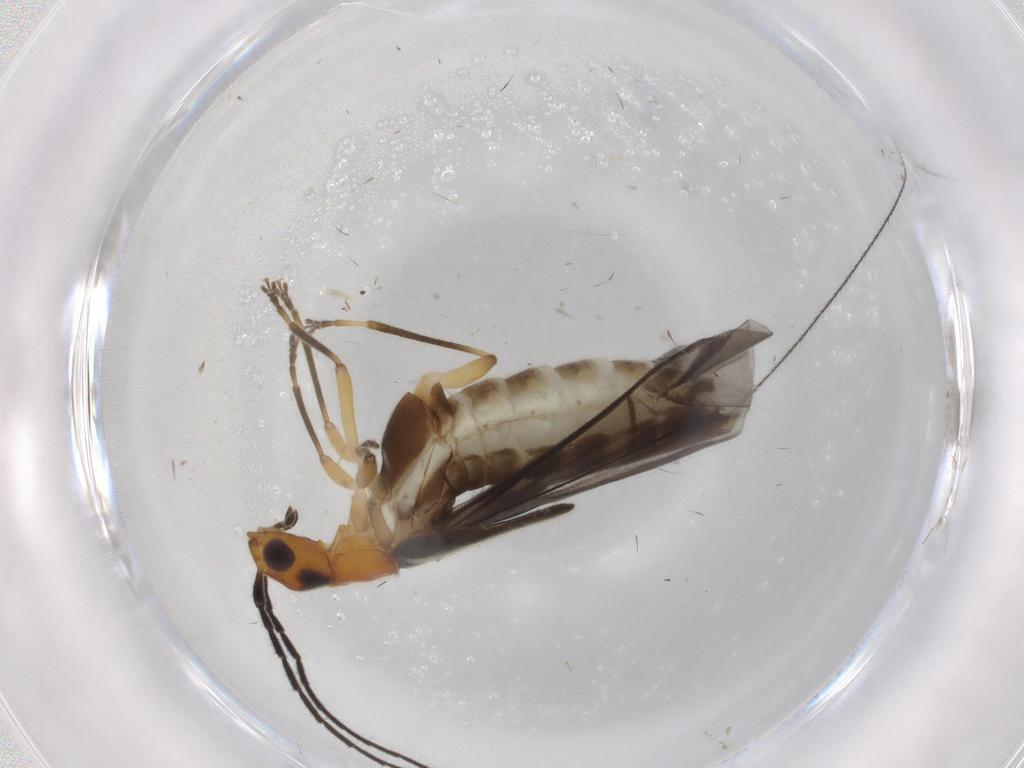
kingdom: Animalia
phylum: Arthropoda
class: Insecta
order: Coleoptera
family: Cantharidae
